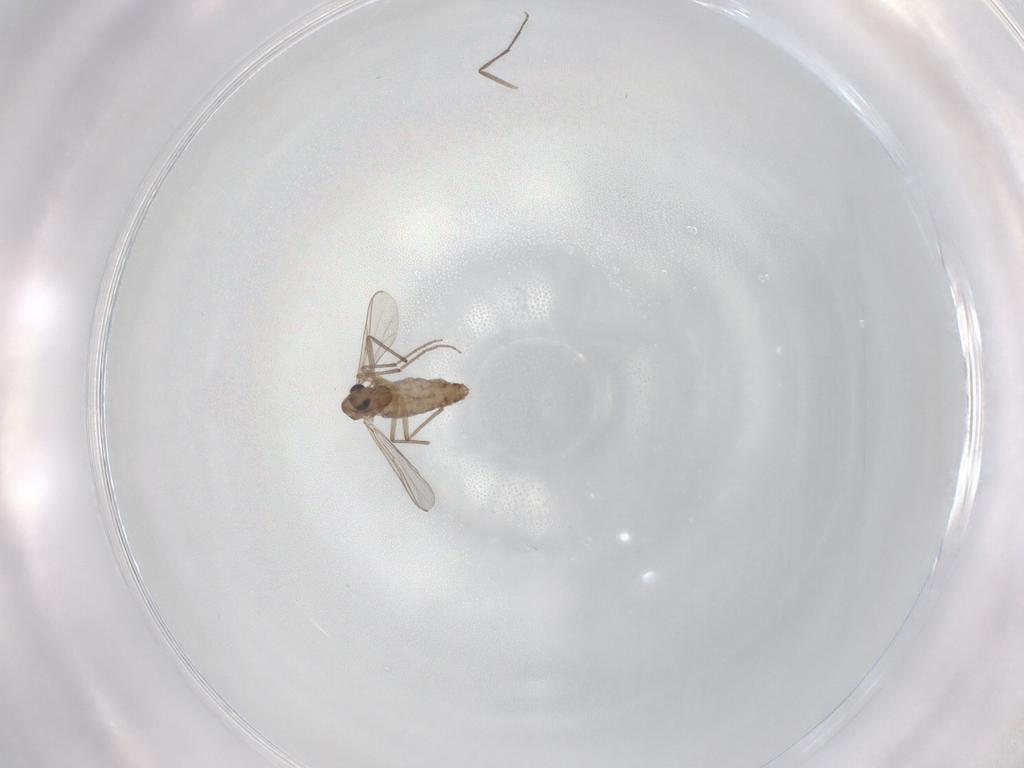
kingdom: Animalia
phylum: Arthropoda
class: Insecta
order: Diptera
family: Chironomidae
